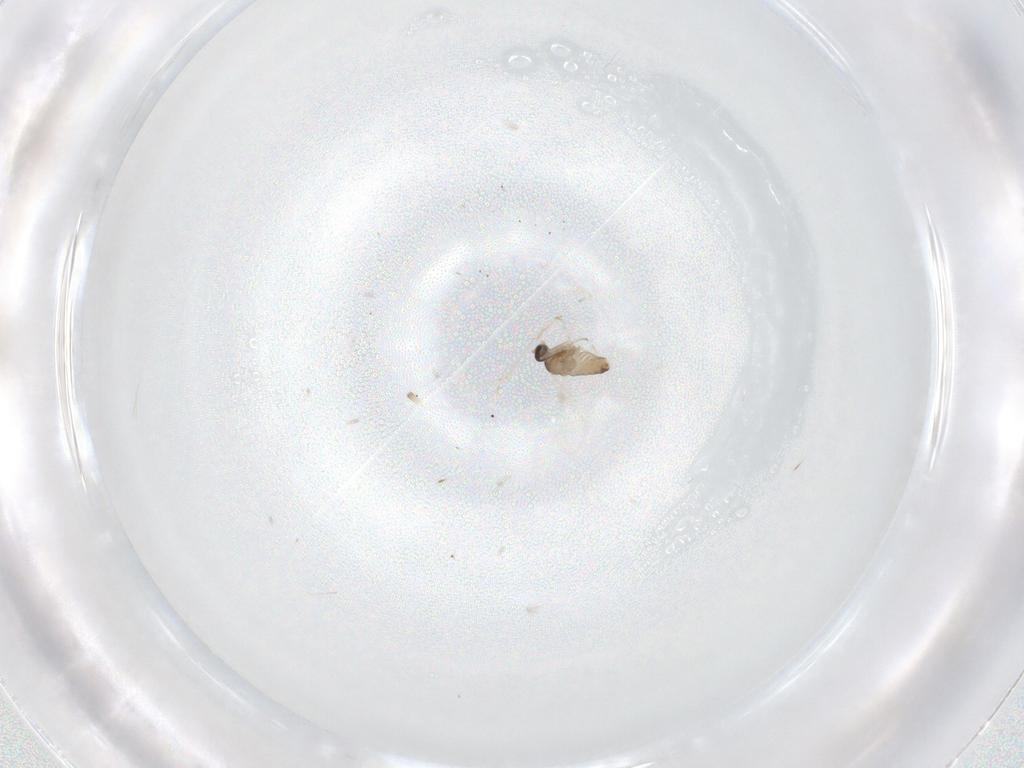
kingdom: Animalia
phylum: Arthropoda
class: Insecta
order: Diptera
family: Cecidomyiidae
